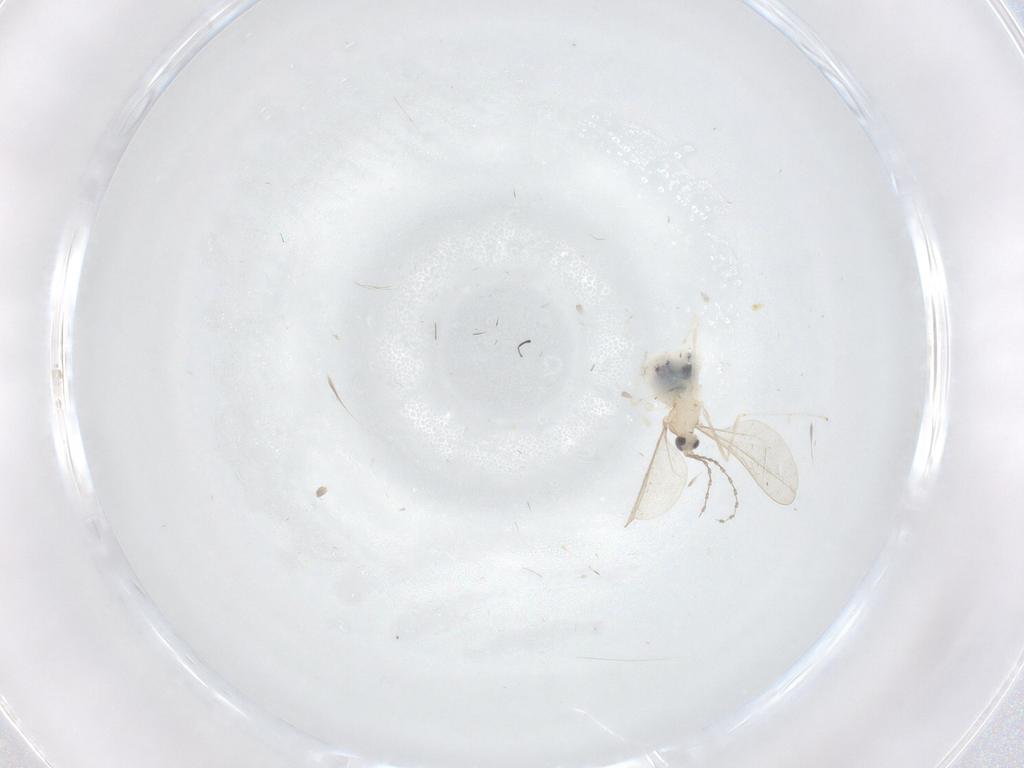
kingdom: Animalia
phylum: Arthropoda
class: Insecta
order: Diptera
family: Cecidomyiidae
